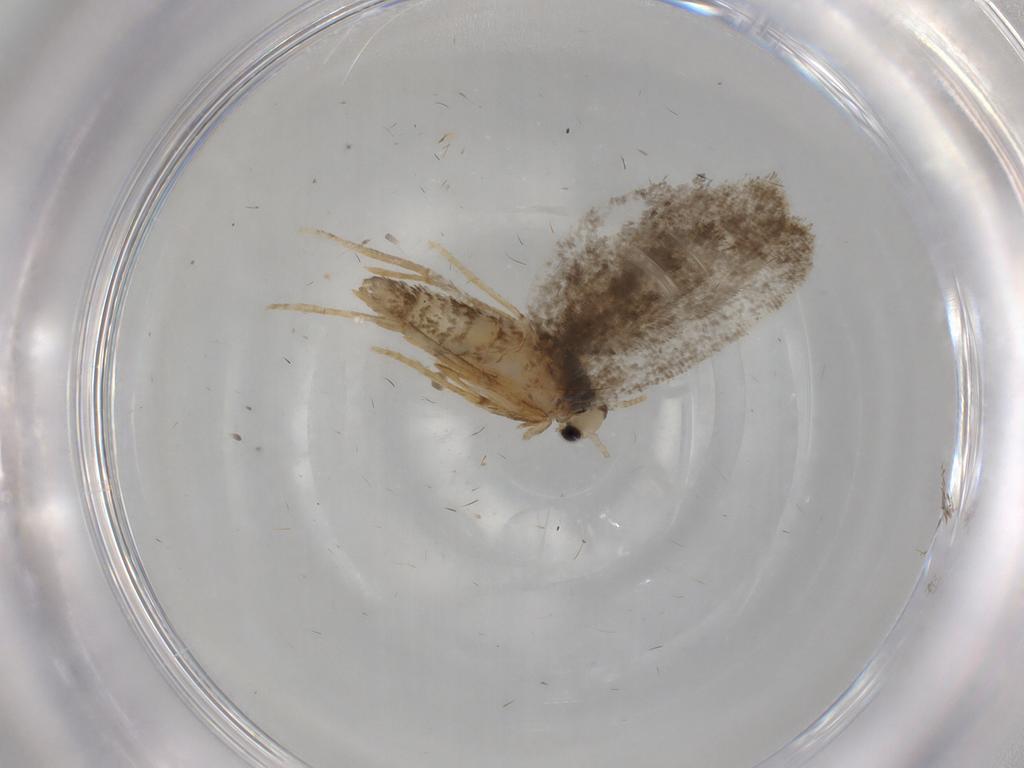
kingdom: Animalia
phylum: Arthropoda
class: Insecta
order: Lepidoptera
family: Psychidae
